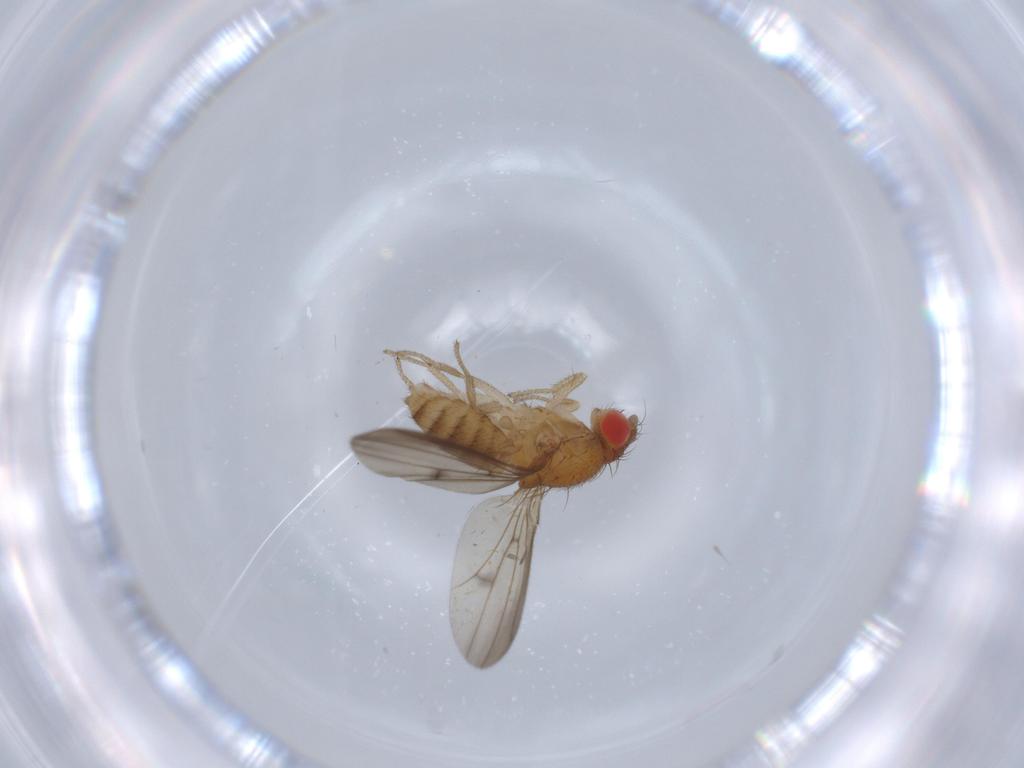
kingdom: Animalia
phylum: Arthropoda
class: Insecta
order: Diptera
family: Drosophilidae
